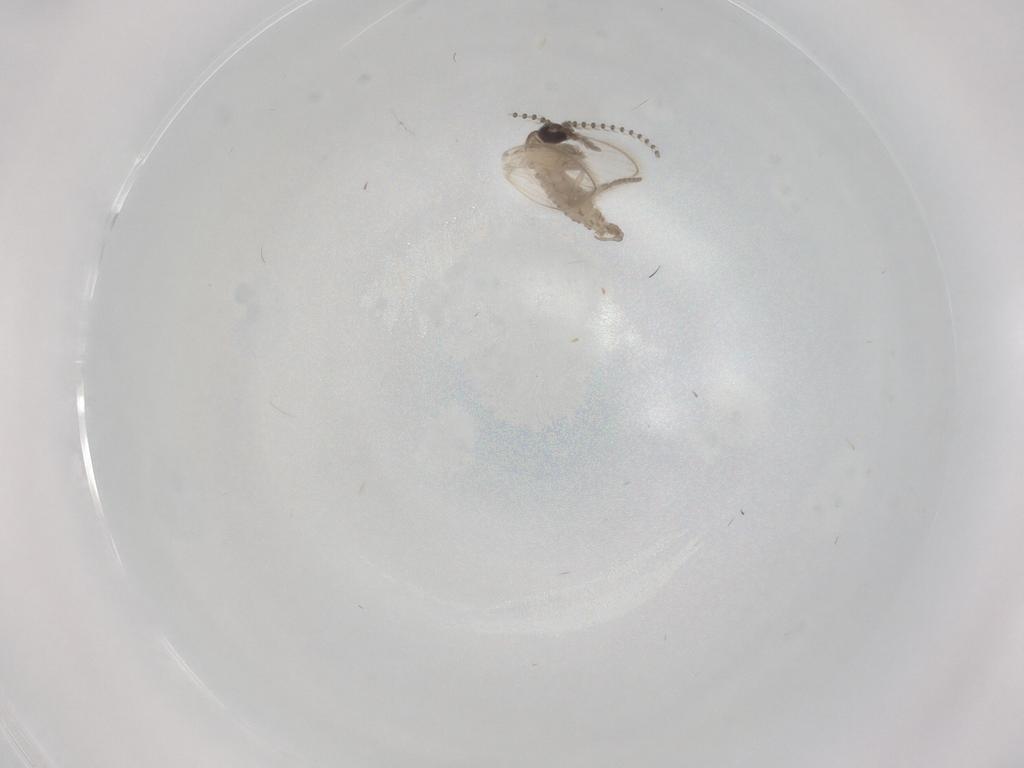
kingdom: Animalia
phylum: Arthropoda
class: Insecta
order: Diptera
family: Psychodidae
